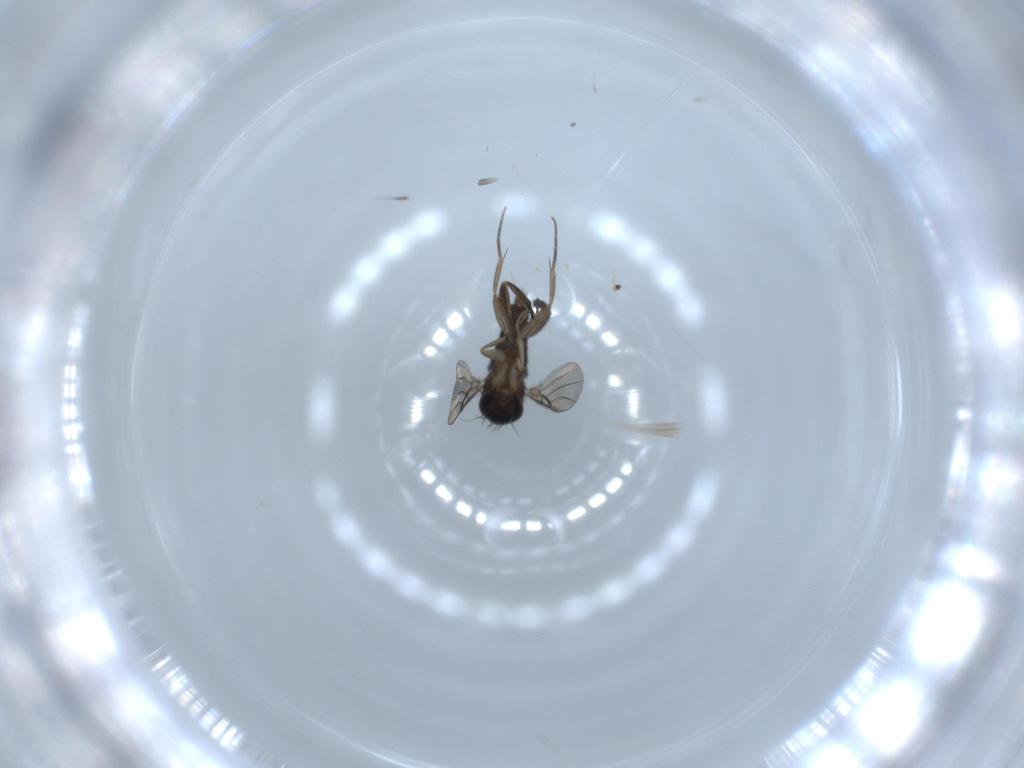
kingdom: Animalia
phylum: Arthropoda
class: Insecta
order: Diptera
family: Phoridae
